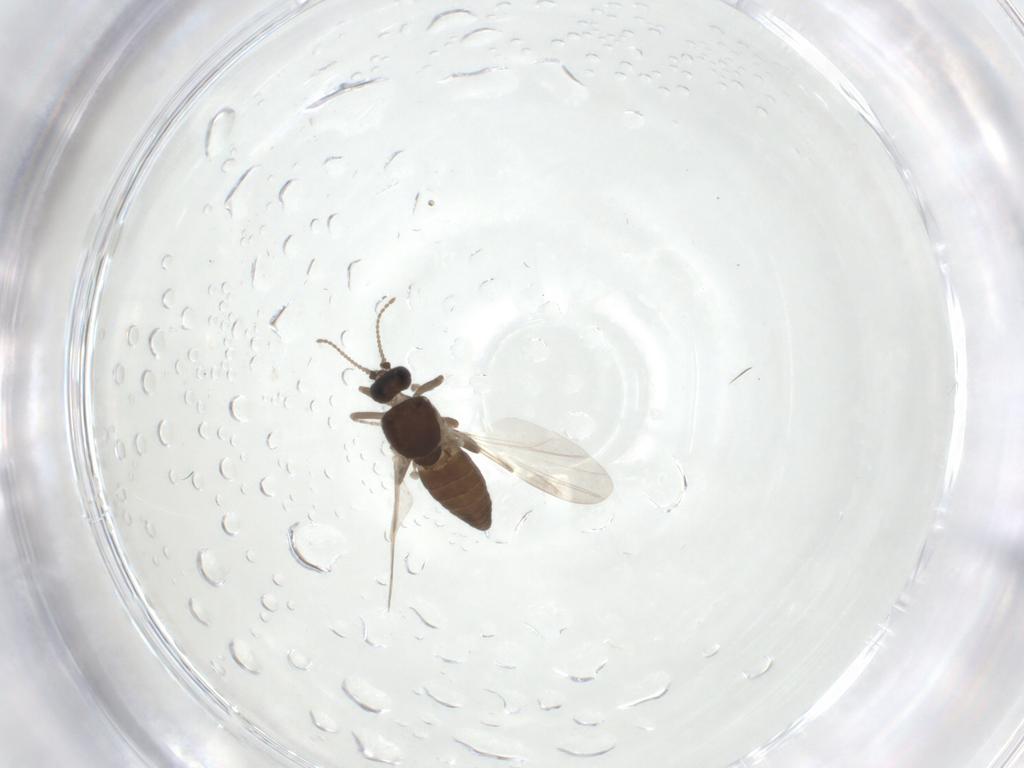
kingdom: Animalia
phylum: Arthropoda
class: Insecta
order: Diptera
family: Ceratopogonidae
